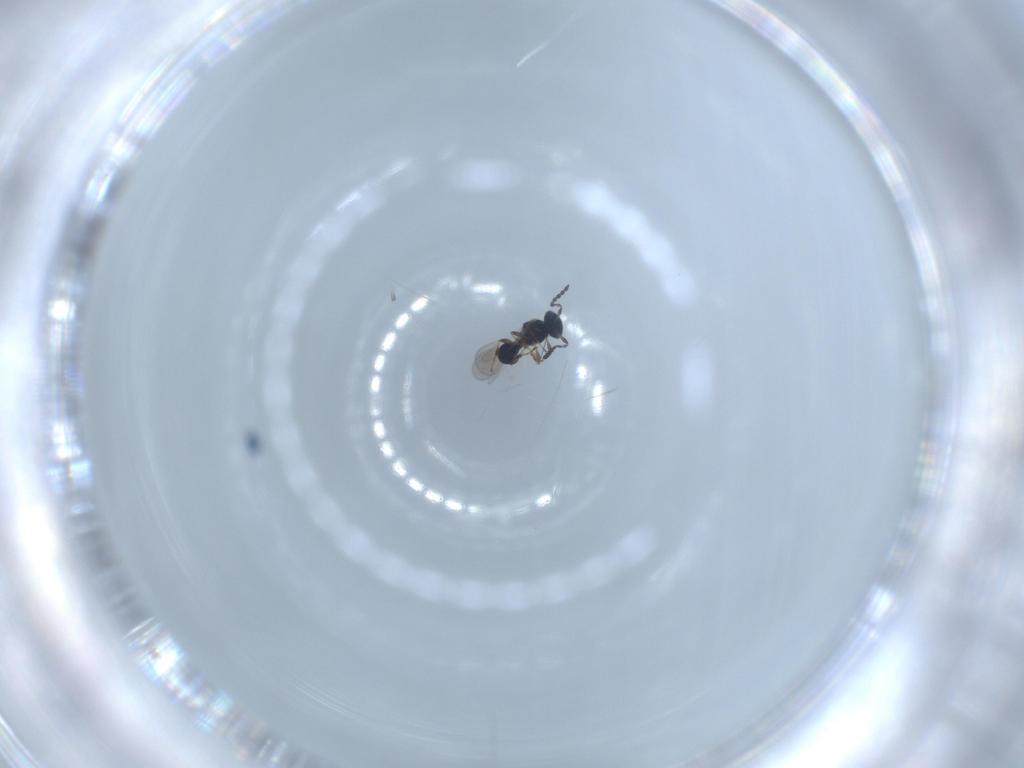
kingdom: Animalia
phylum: Arthropoda
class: Insecta
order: Hymenoptera
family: Platygastridae
